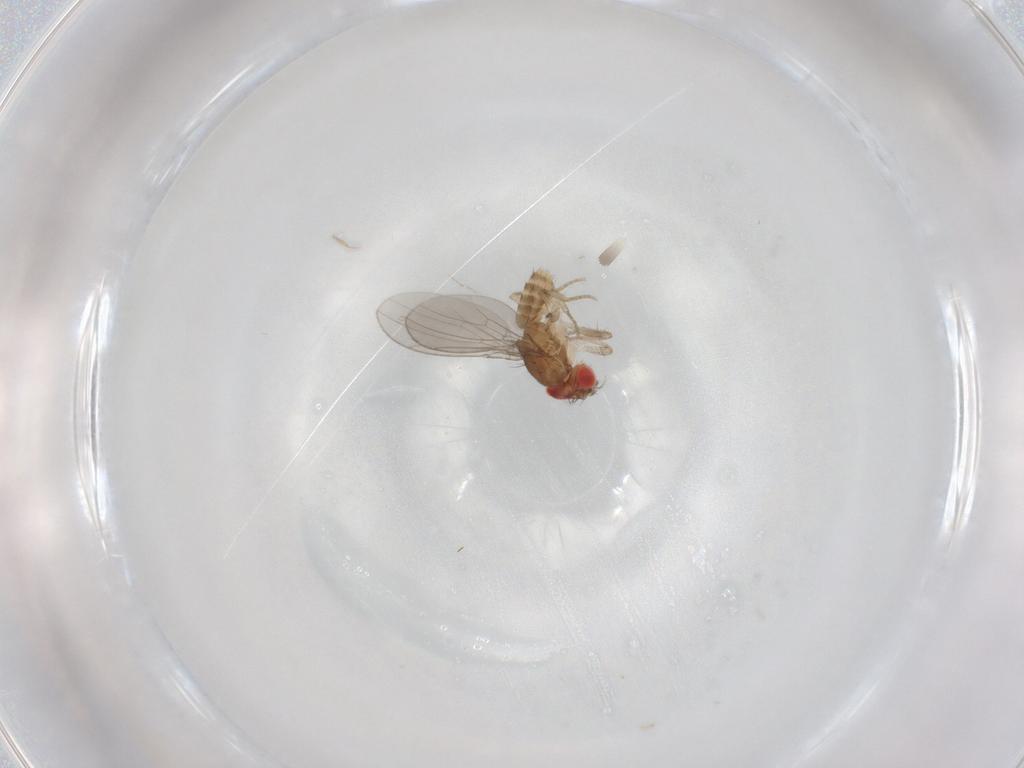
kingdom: Animalia
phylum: Arthropoda
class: Insecta
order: Diptera
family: Drosophilidae
